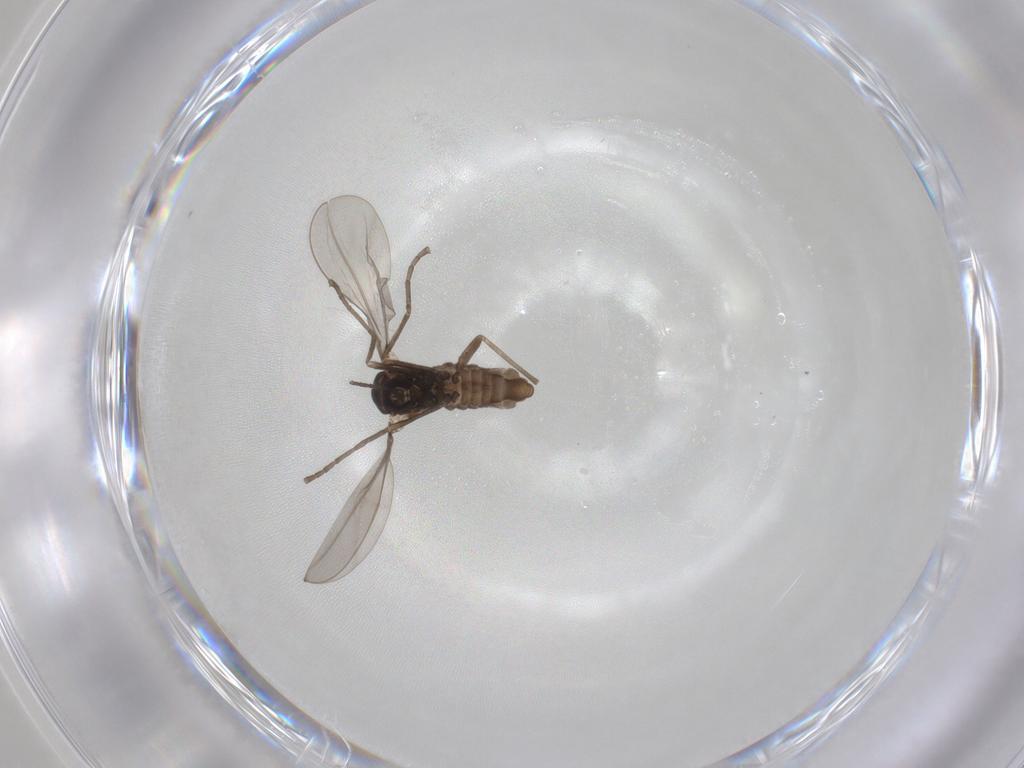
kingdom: Animalia
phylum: Arthropoda
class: Insecta
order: Diptera
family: Cecidomyiidae
